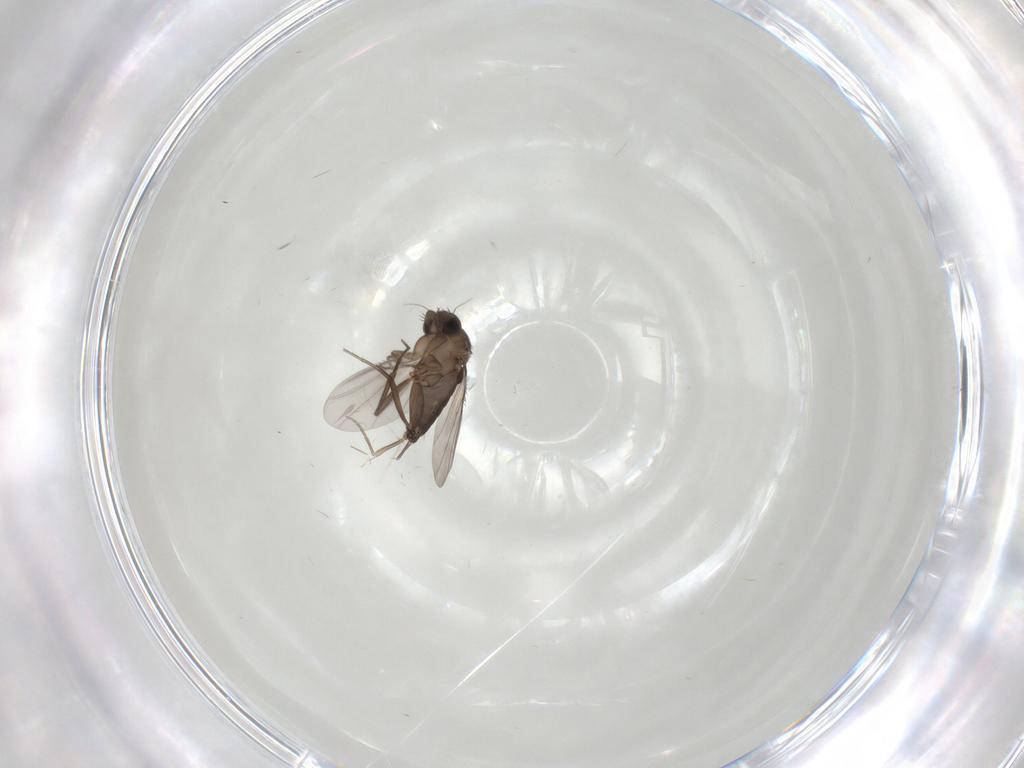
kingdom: Animalia
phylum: Arthropoda
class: Insecta
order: Diptera
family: Phoridae
